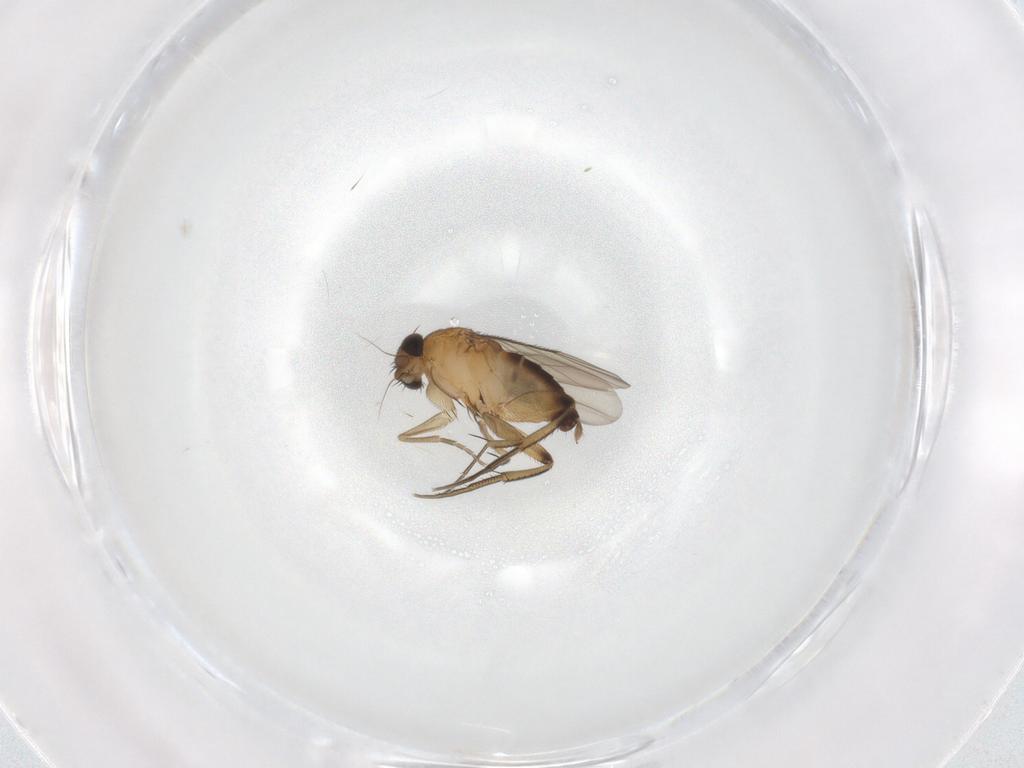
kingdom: Animalia
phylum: Arthropoda
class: Insecta
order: Diptera
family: Phoridae
